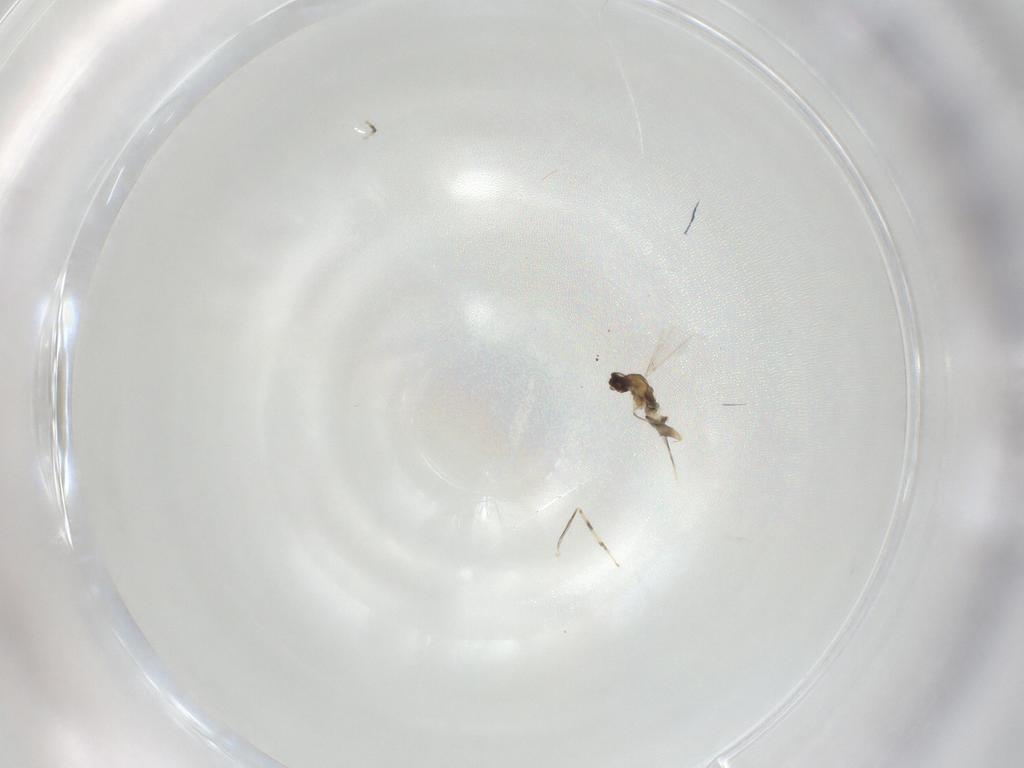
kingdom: Animalia
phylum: Arthropoda
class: Insecta
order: Diptera
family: Cecidomyiidae
